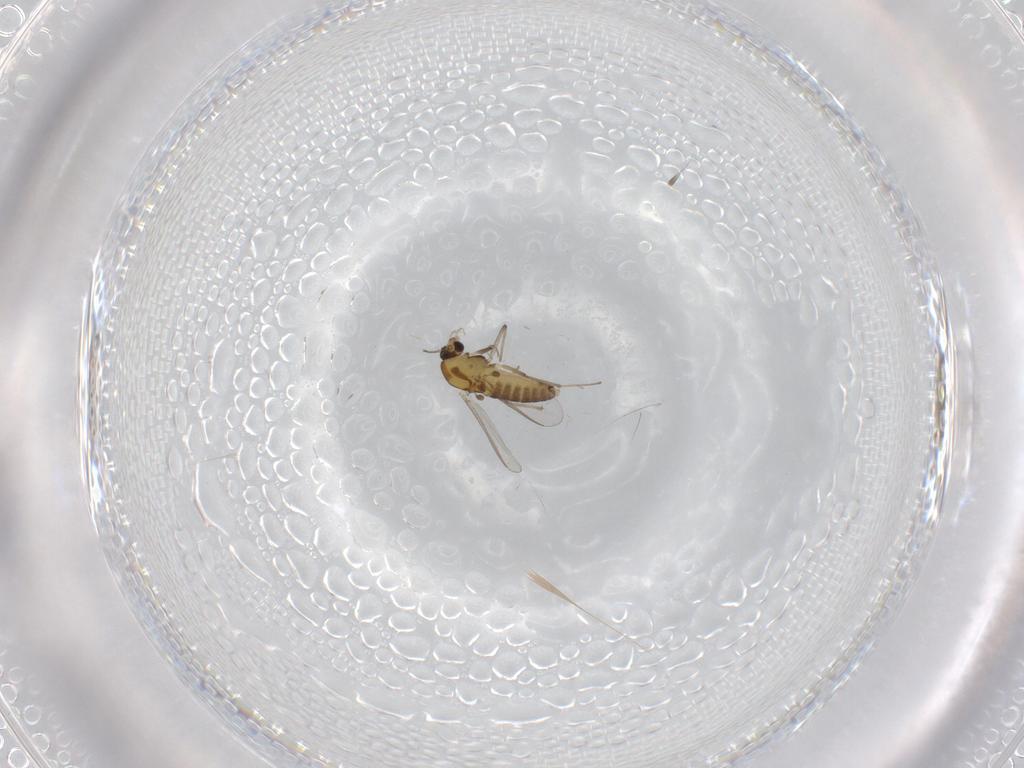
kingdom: Animalia
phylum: Arthropoda
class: Insecta
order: Diptera
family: Chironomidae
